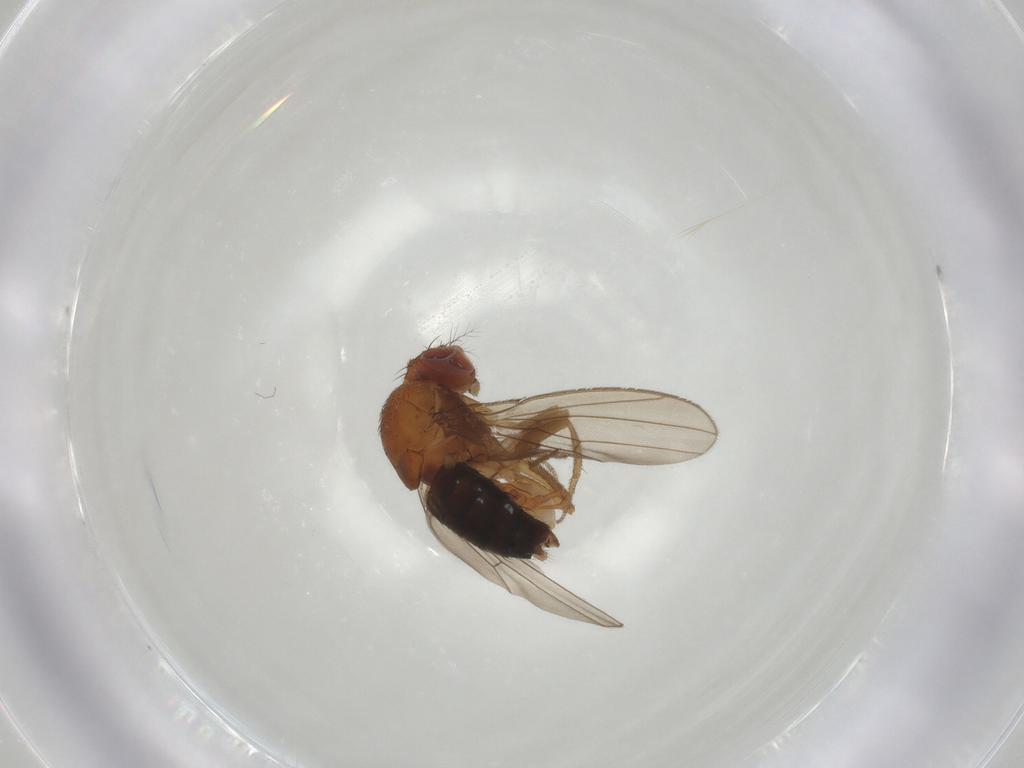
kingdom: Animalia
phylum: Arthropoda
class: Insecta
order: Diptera
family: Drosophilidae
